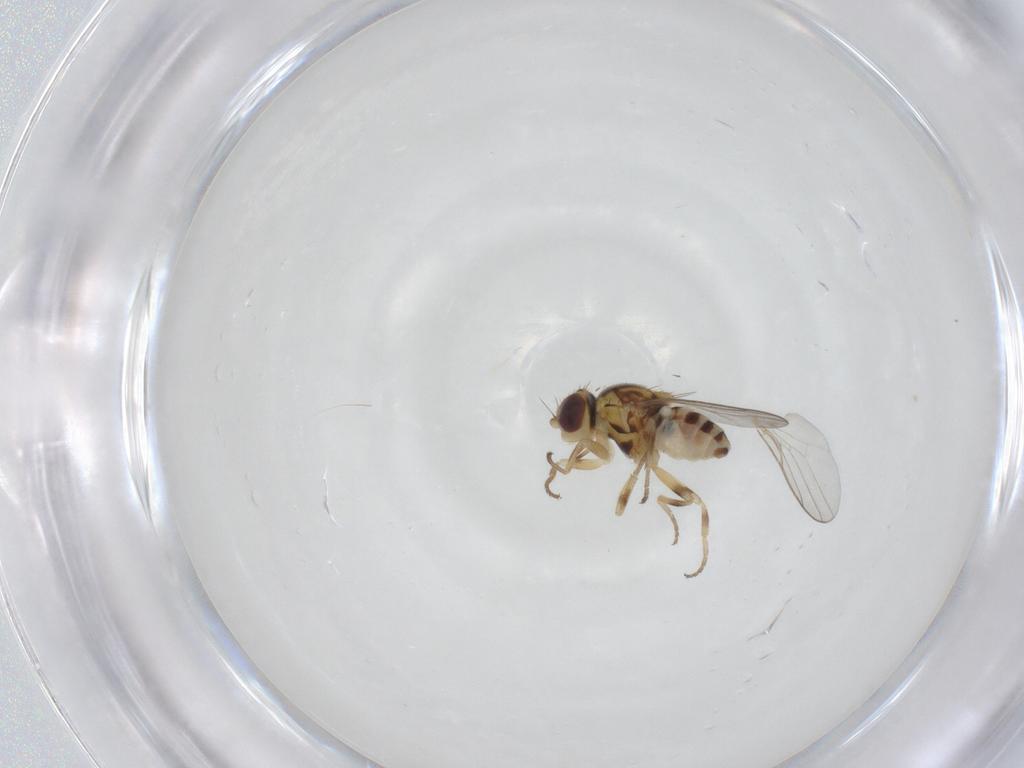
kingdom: Animalia
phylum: Arthropoda
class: Insecta
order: Diptera
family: Chloropidae
